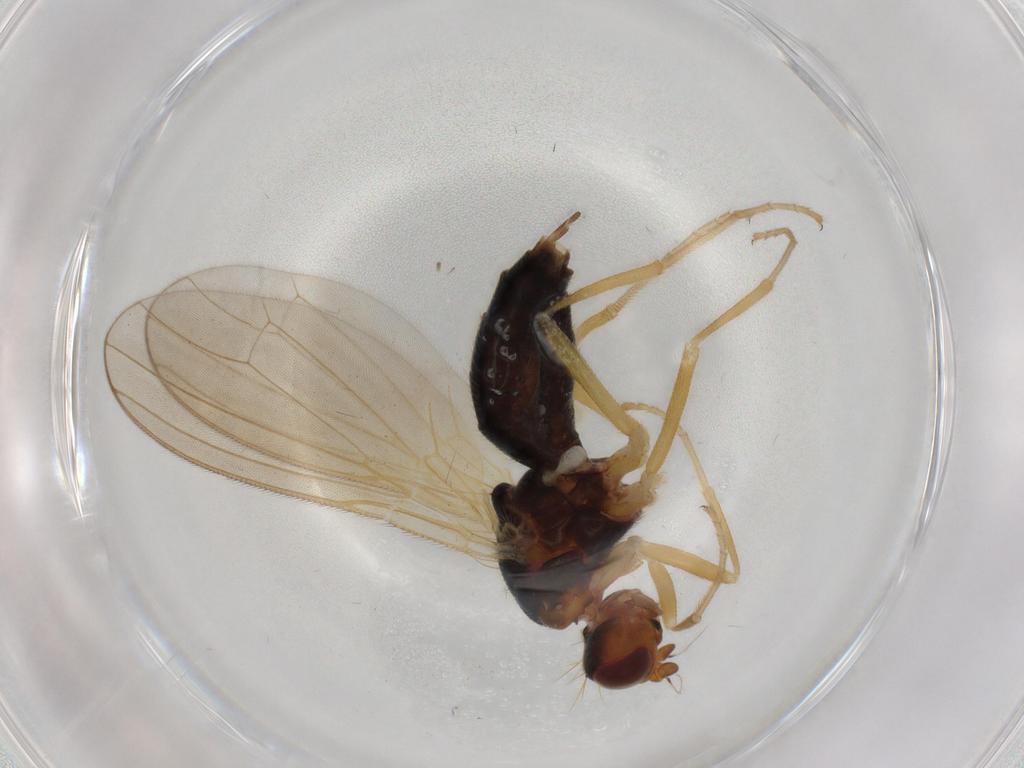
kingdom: Animalia
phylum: Arthropoda
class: Insecta
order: Diptera
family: Psilidae
